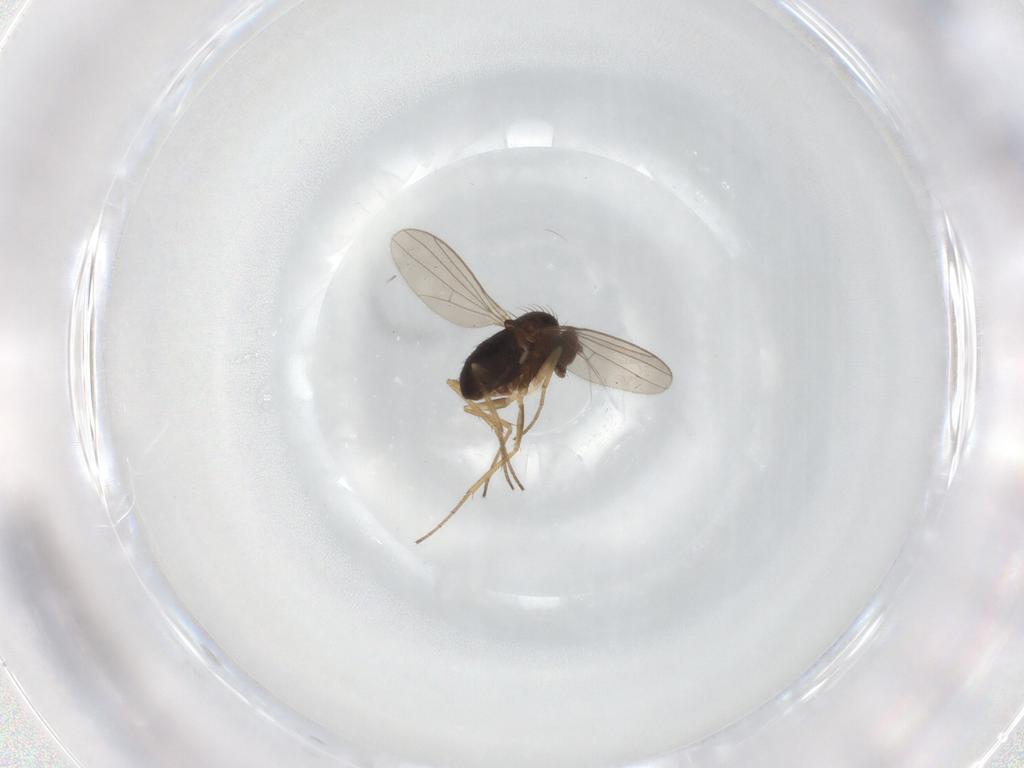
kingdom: Animalia
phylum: Arthropoda
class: Insecta
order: Diptera
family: Dolichopodidae
